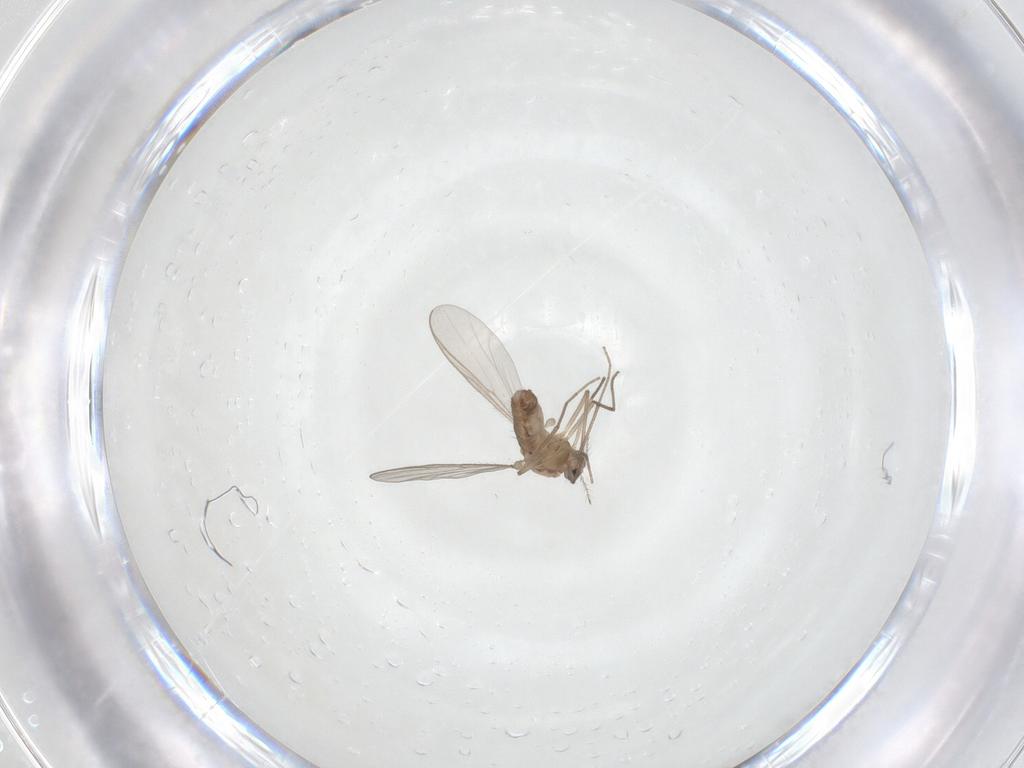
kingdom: Animalia
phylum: Arthropoda
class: Insecta
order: Diptera
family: Chironomidae
